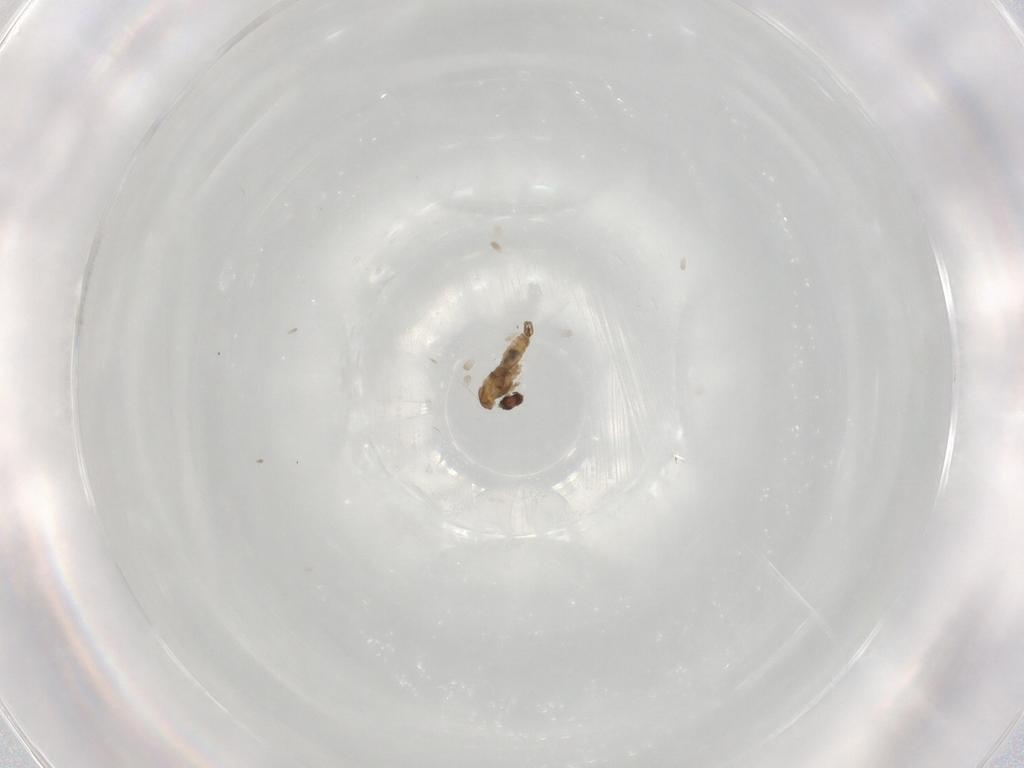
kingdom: Animalia
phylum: Arthropoda
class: Insecta
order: Diptera
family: Cecidomyiidae
